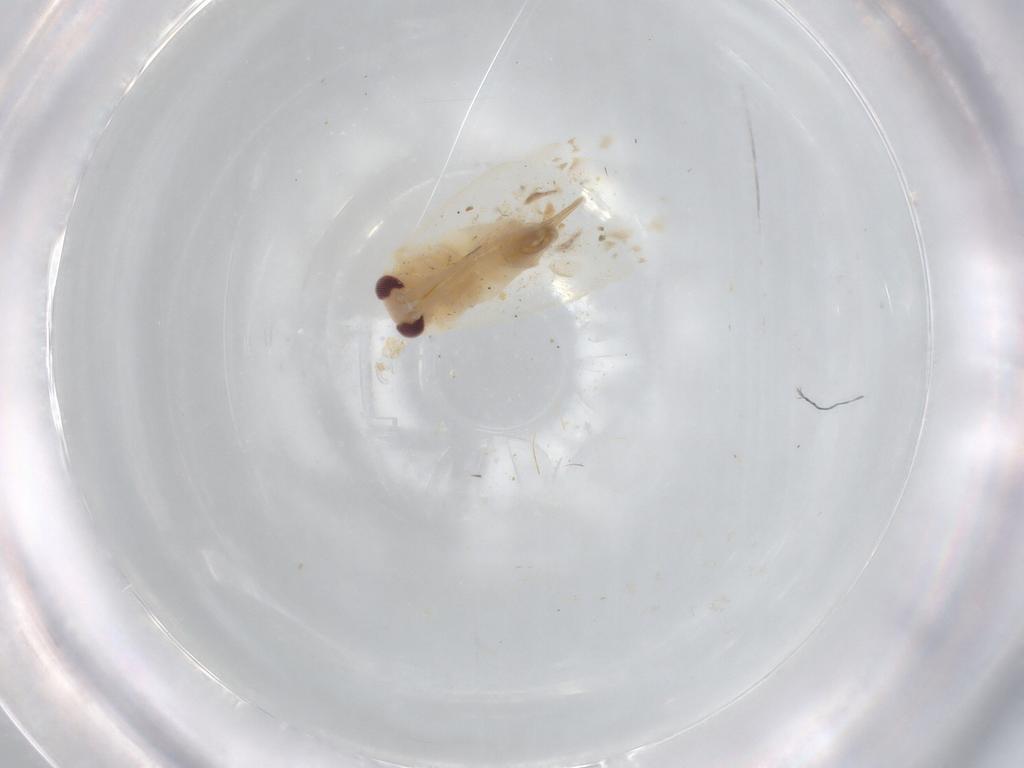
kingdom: Animalia
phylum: Arthropoda
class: Insecta
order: Hemiptera
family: Miridae
